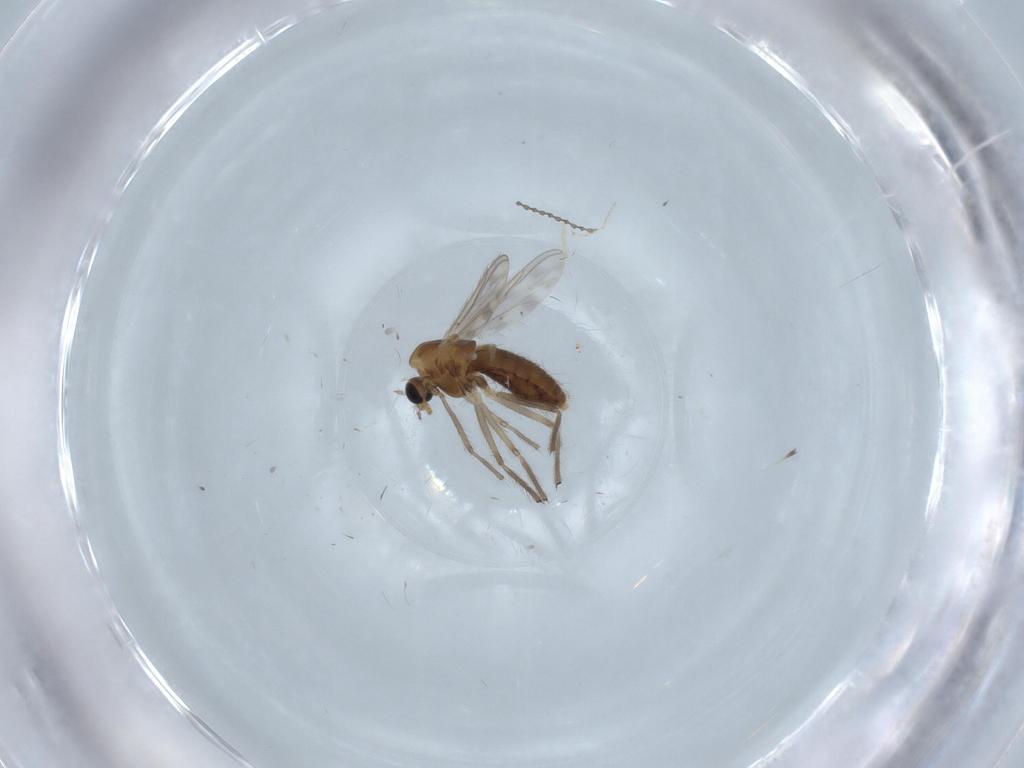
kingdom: Animalia
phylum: Arthropoda
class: Insecta
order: Diptera
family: Chironomidae
